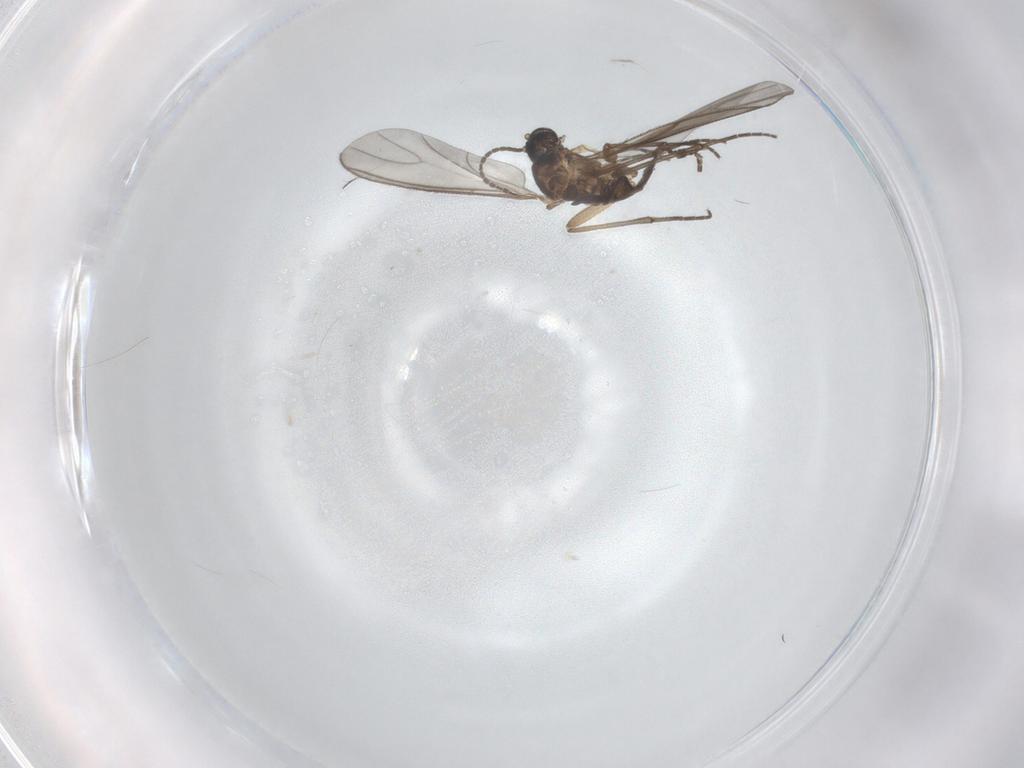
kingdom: Animalia
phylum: Arthropoda
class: Insecta
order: Diptera
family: Sciaridae
